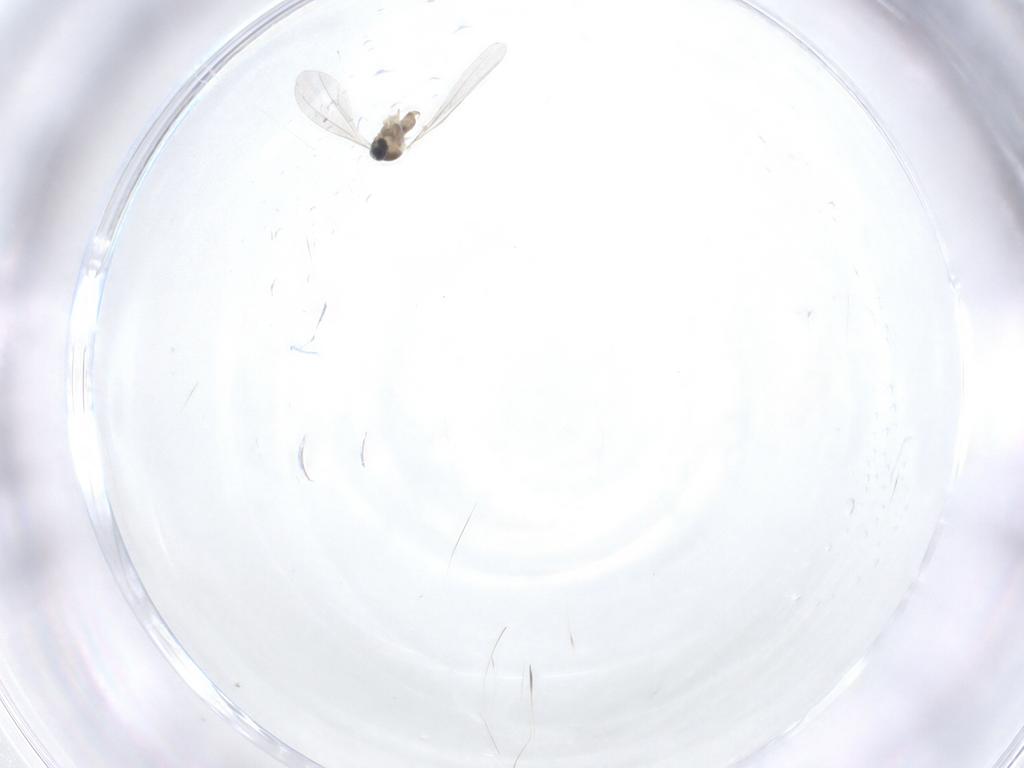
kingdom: Animalia
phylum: Arthropoda
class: Insecta
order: Diptera
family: Cecidomyiidae
